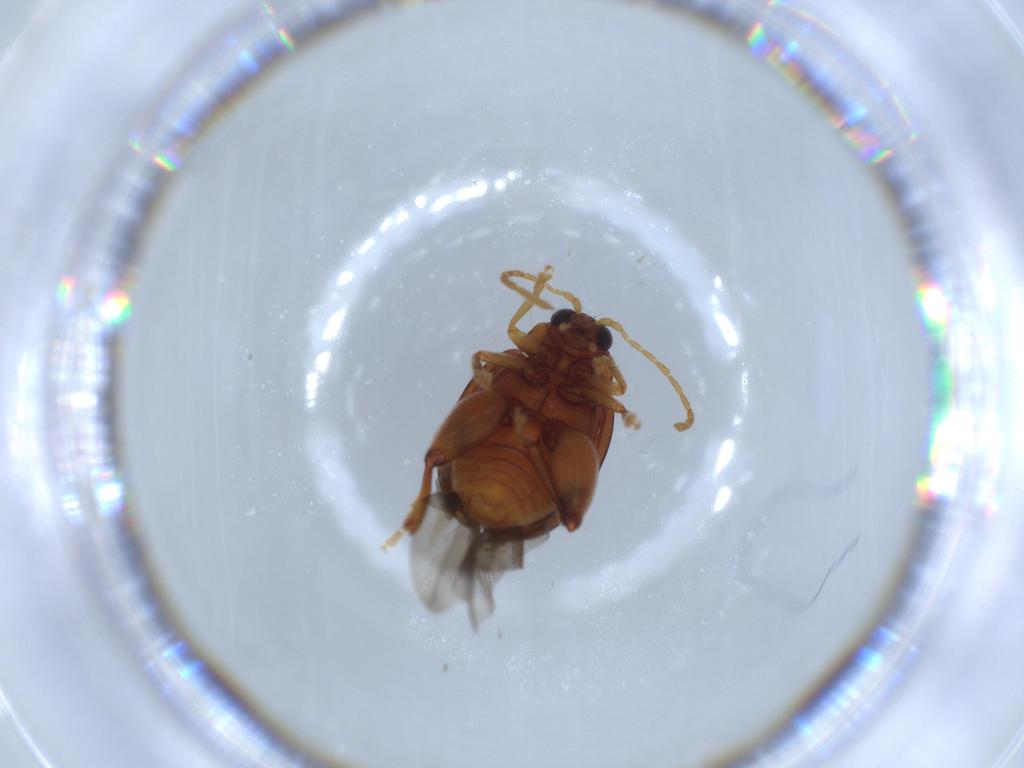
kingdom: Animalia
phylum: Arthropoda
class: Insecta
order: Coleoptera
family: Chrysomelidae
